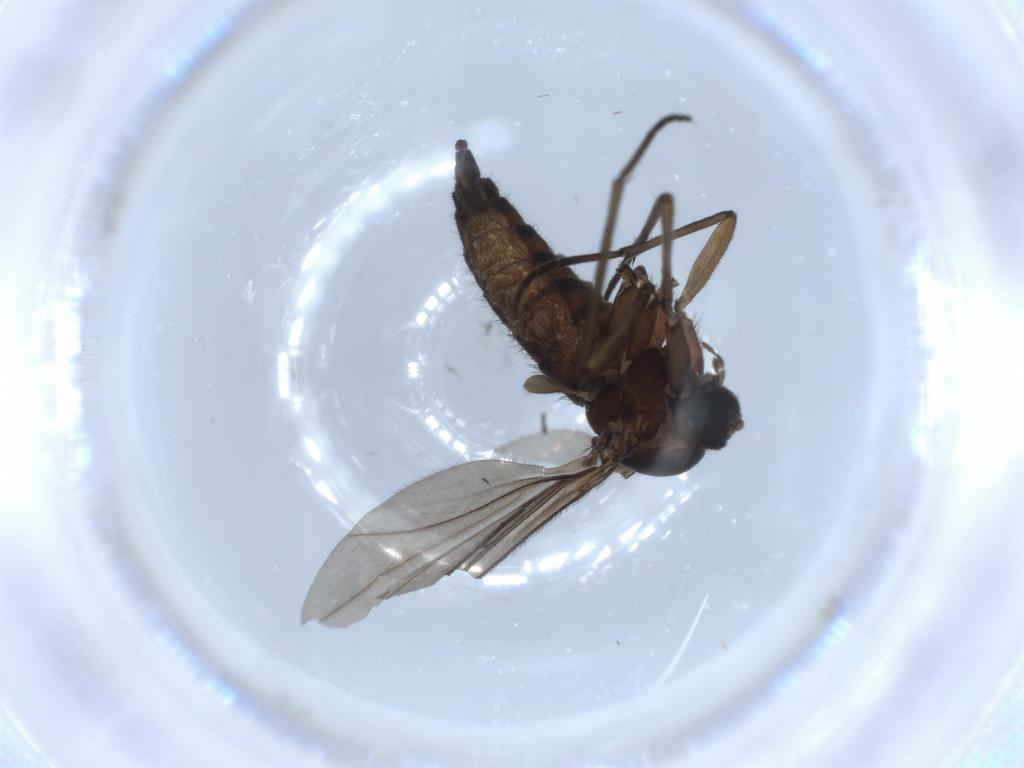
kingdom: Animalia
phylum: Arthropoda
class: Insecta
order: Diptera
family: Sciaridae
